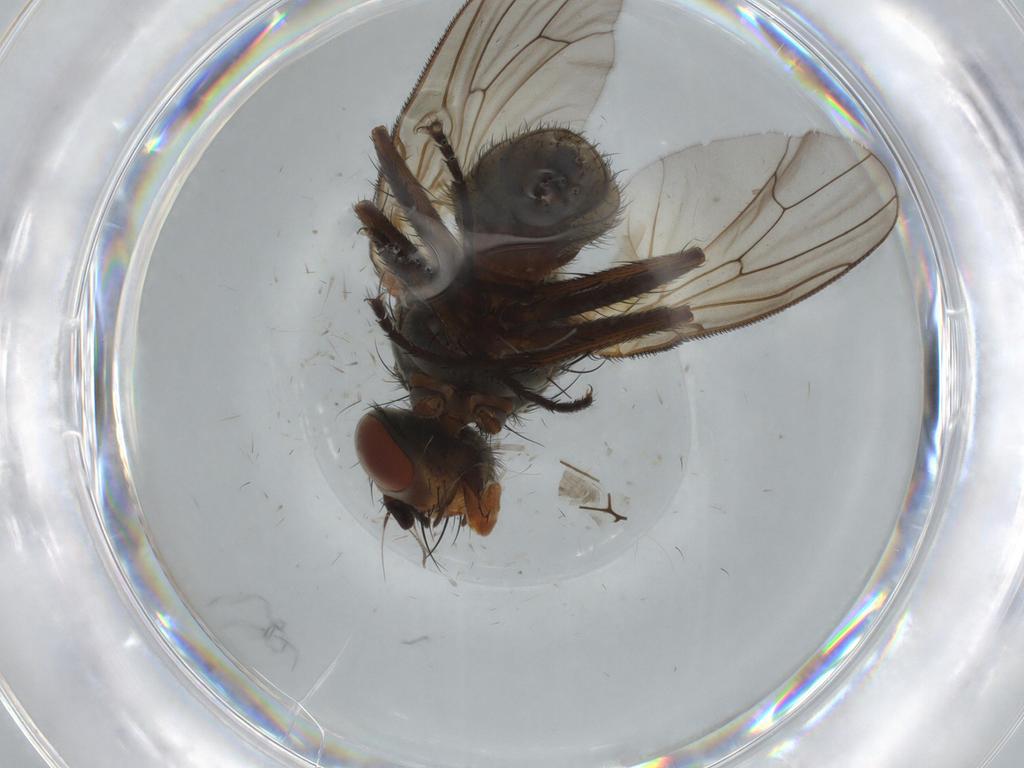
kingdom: Animalia
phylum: Arthropoda
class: Insecta
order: Diptera
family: Anthomyiidae
